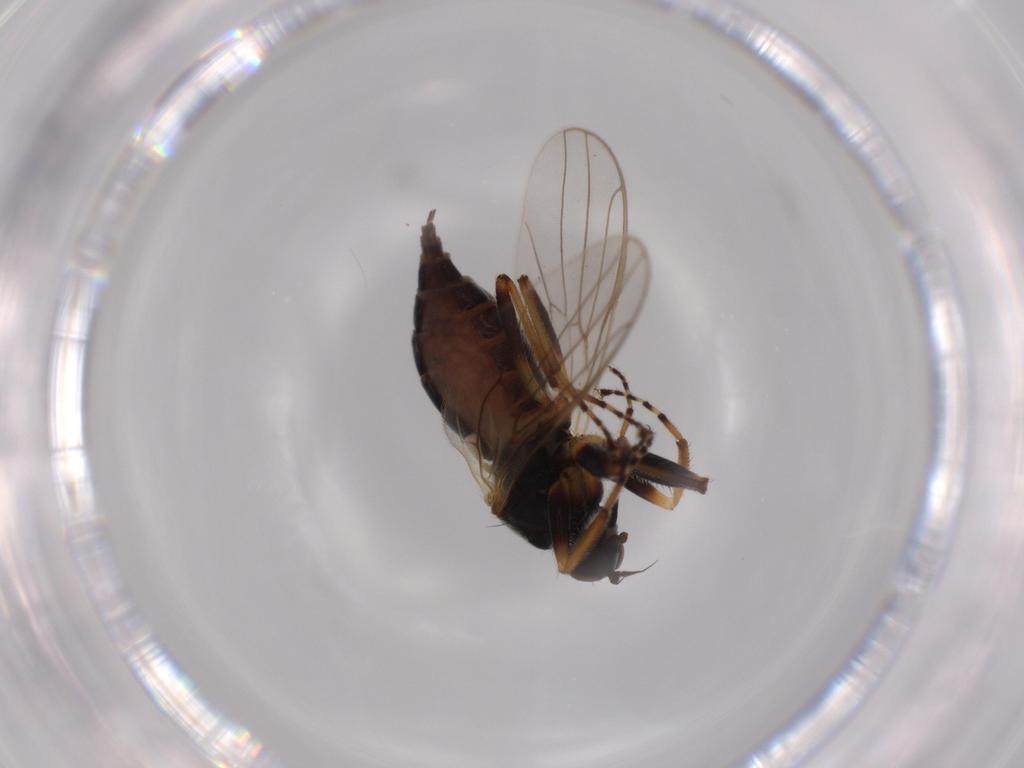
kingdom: Animalia
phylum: Arthropoda
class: Insecta
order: Diptera
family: Hybotidae
